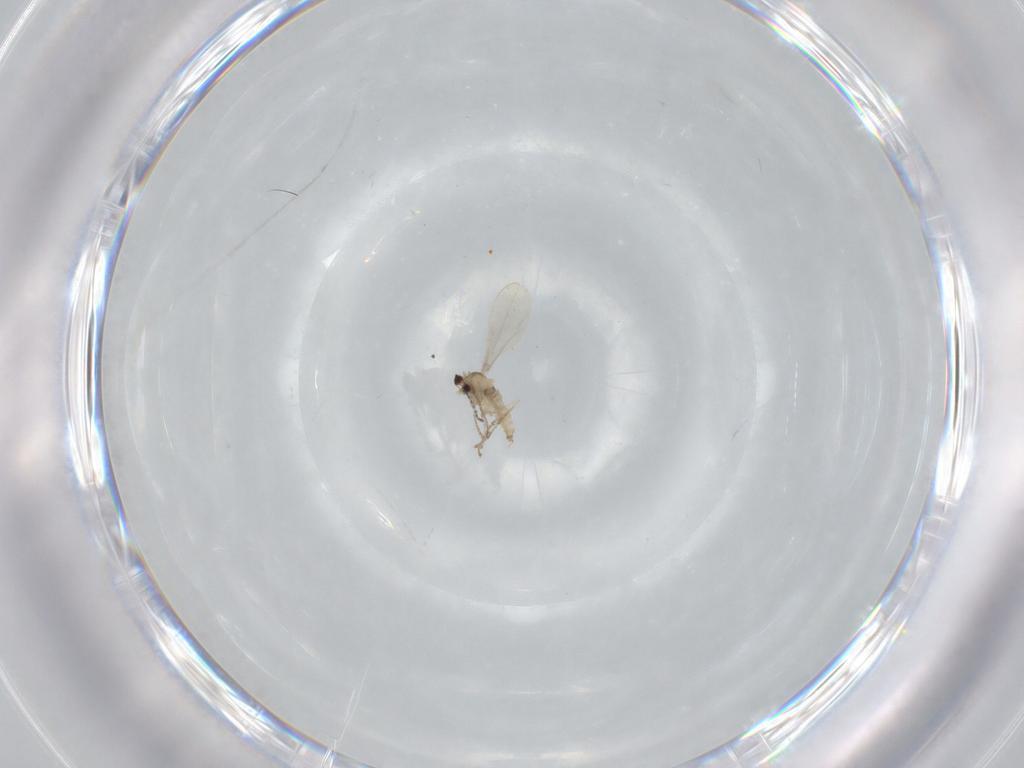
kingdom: Animalia
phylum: Arthropoda
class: Insecta
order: Diptera
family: Cecidomyiidae
